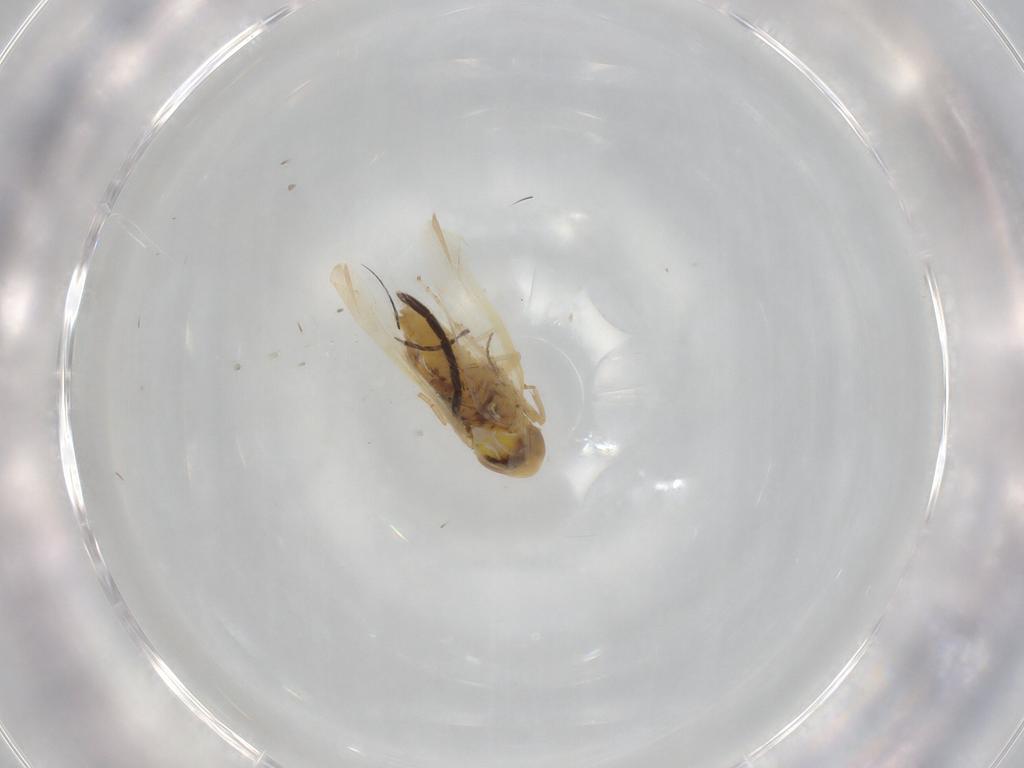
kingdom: Animalia
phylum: Arthropoda
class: Insecta
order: Hemiptera
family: Cicadellidae
